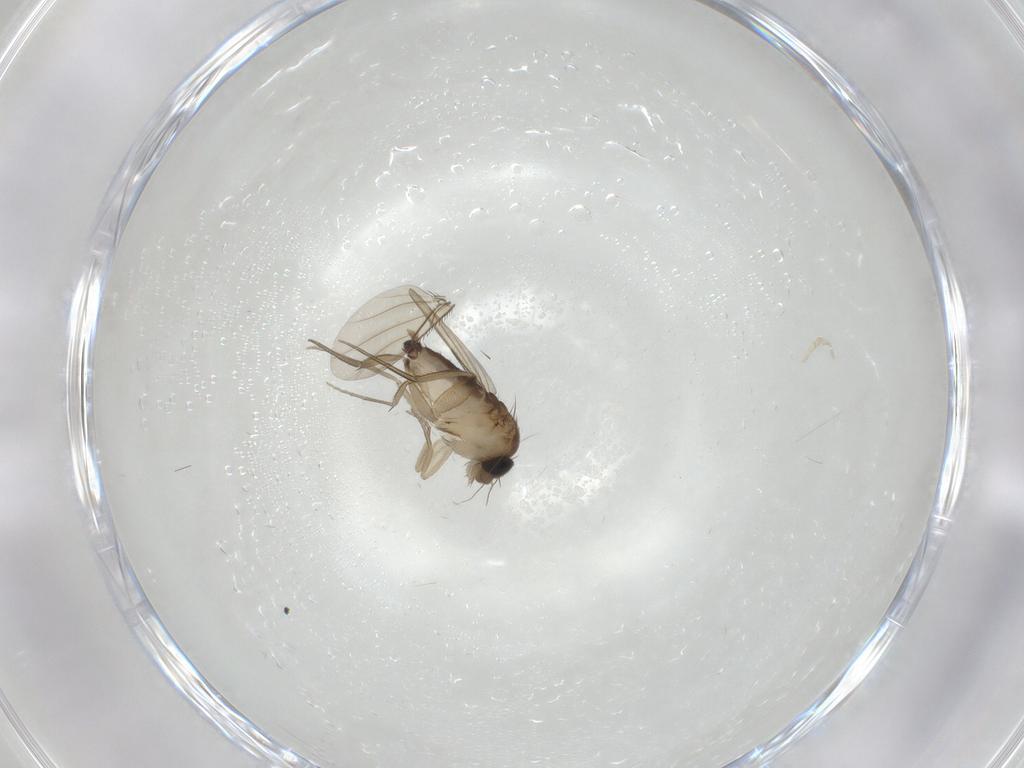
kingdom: Animalia
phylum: Arthropoda
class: Insecta
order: Diptera
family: Phoridae
